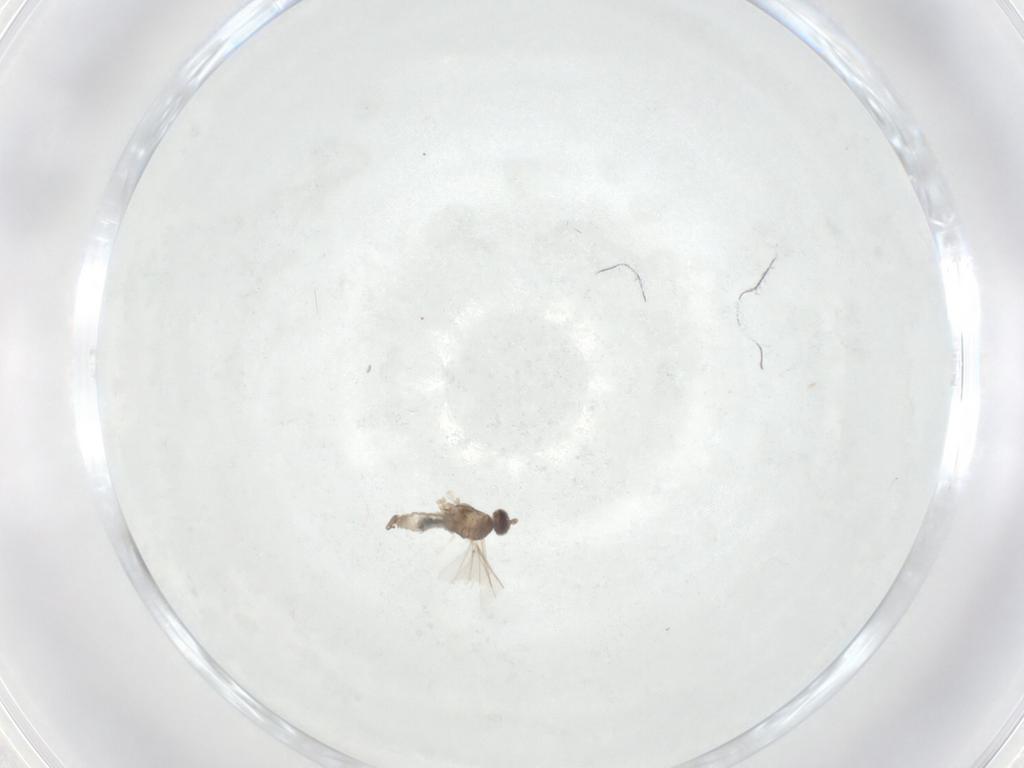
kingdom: Animalia
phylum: Arthropoda
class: Insecta
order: Diptera
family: Cecidomyiidae
